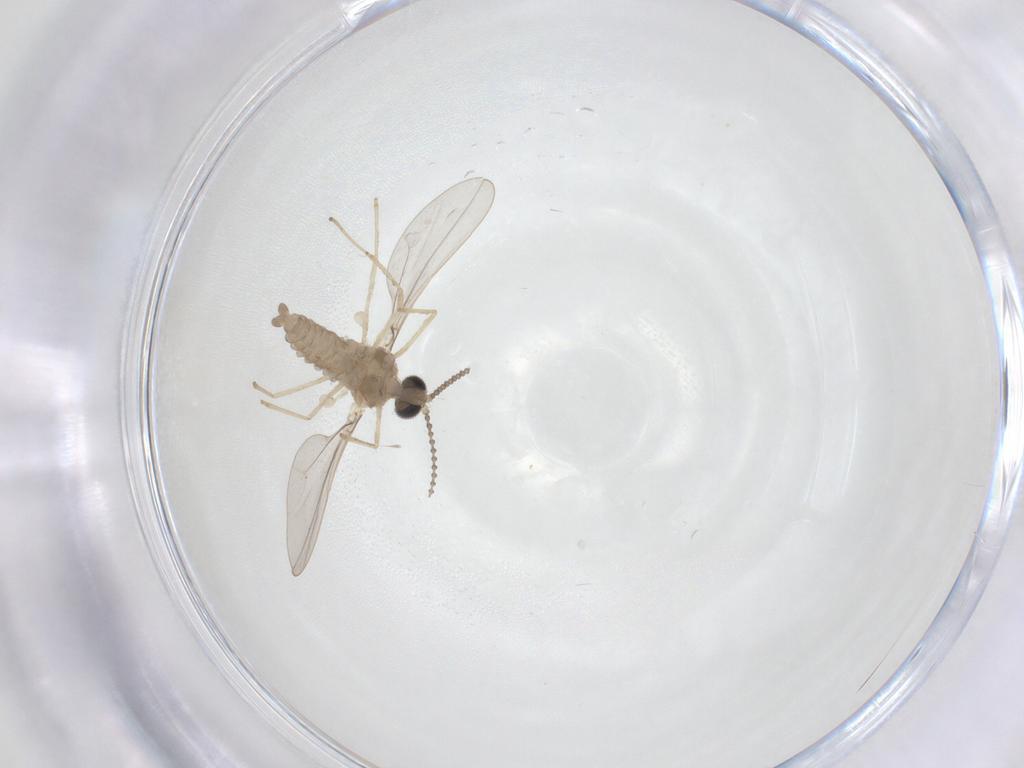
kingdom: Animalia
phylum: Arthropoda
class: Insecta
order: Diptera
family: Cecidomyiidae
